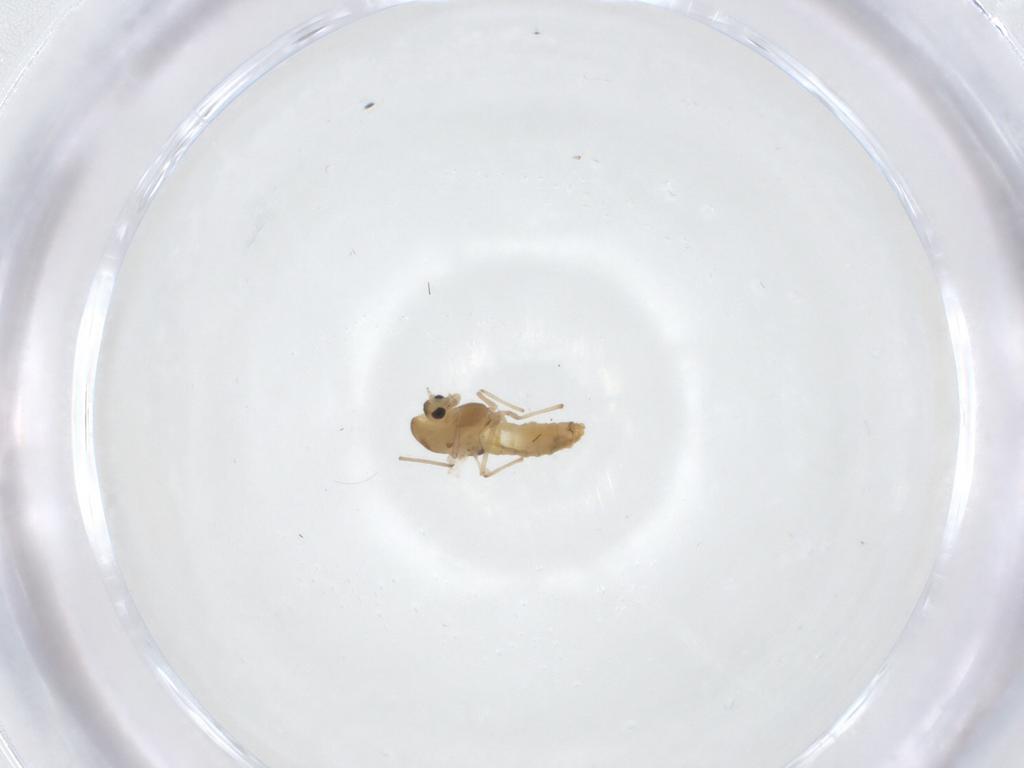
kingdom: Animalia
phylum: Arthropoda
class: Insecta
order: Diptera
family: Chironomidae
